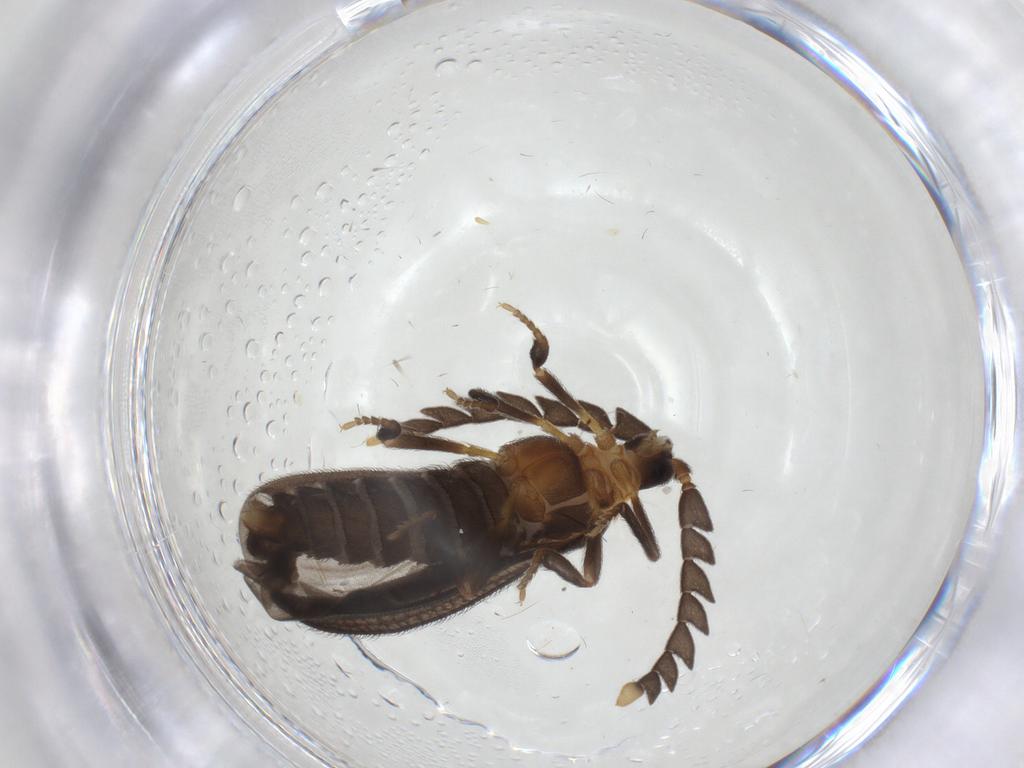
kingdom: Animalia
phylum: Arthropoda
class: Insecta
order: Coleoptera
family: Lycidae
